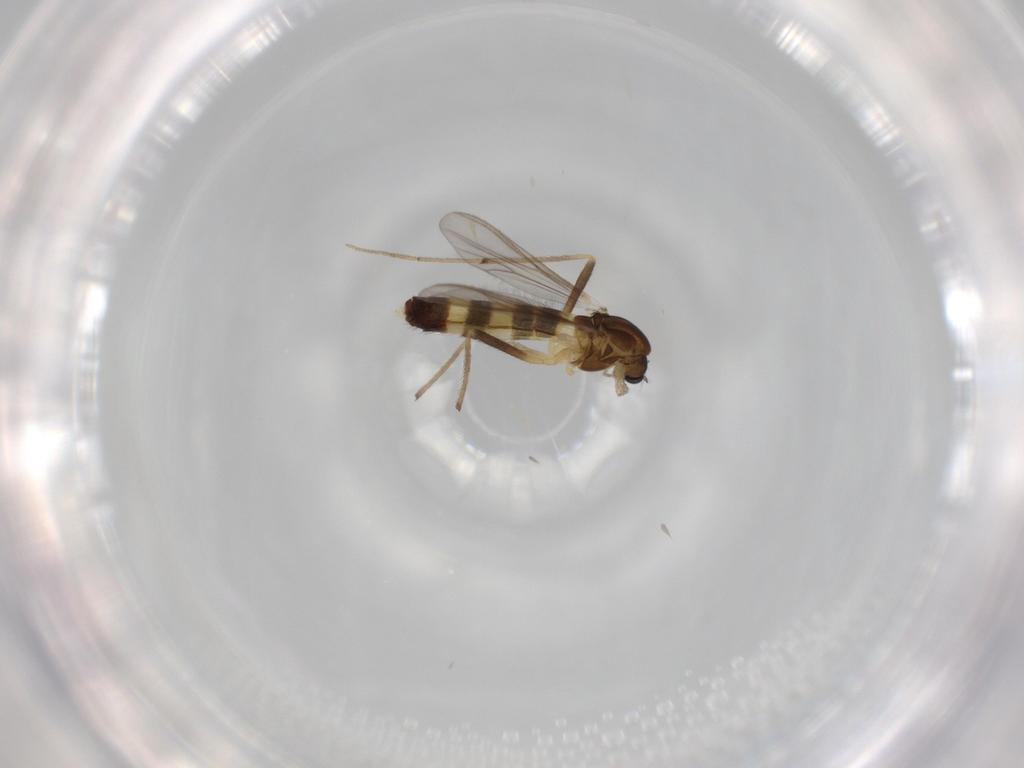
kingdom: Animalia
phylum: Arthropoda
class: Insecta
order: Diptera
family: Chironomidae
